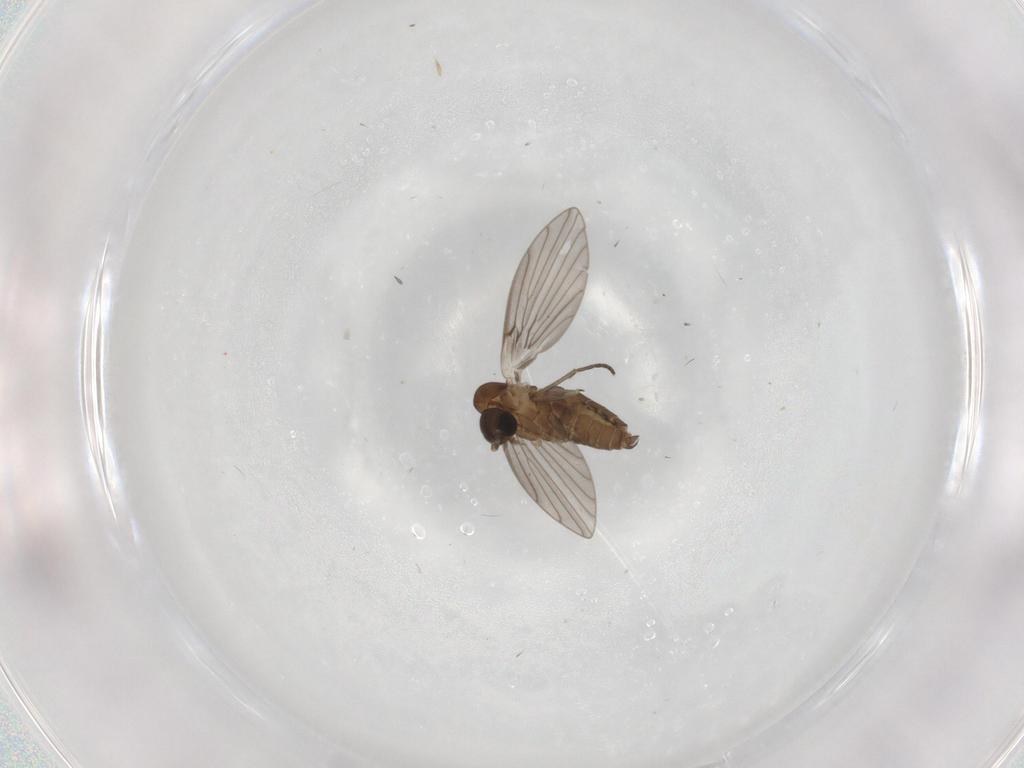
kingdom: Animalia
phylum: Arthropoda
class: Insecta
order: Diptera
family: Psychodidae
